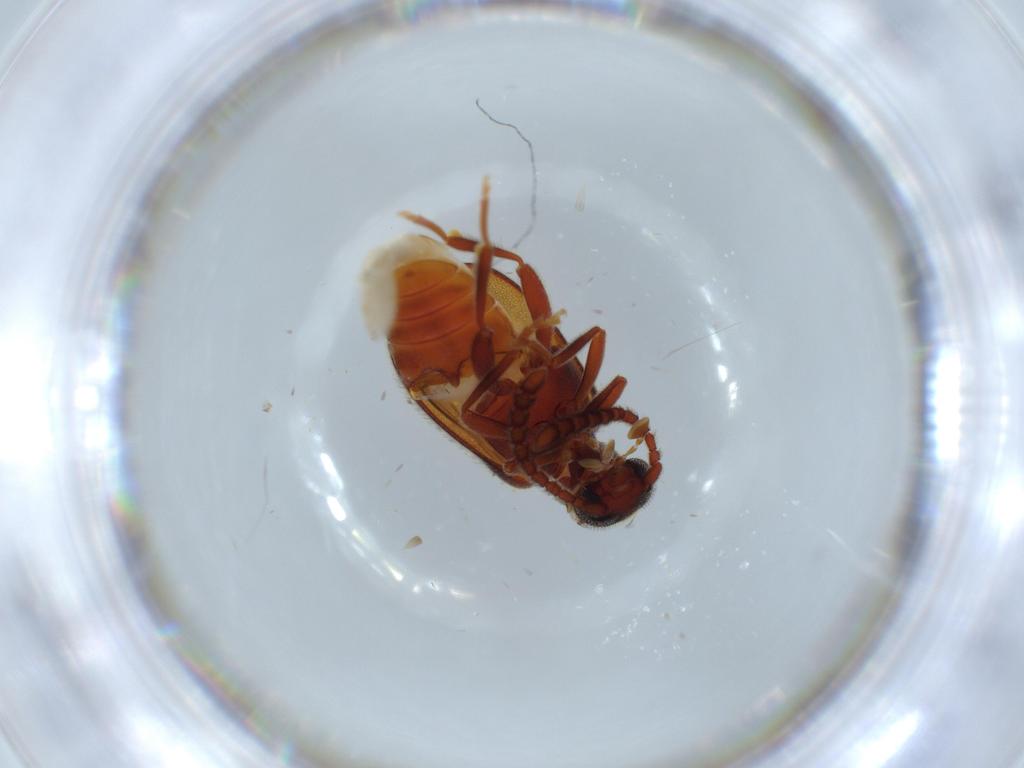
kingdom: Animalia
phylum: Arthropoda
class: Insecta
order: Coleoptera
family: Aderidae
